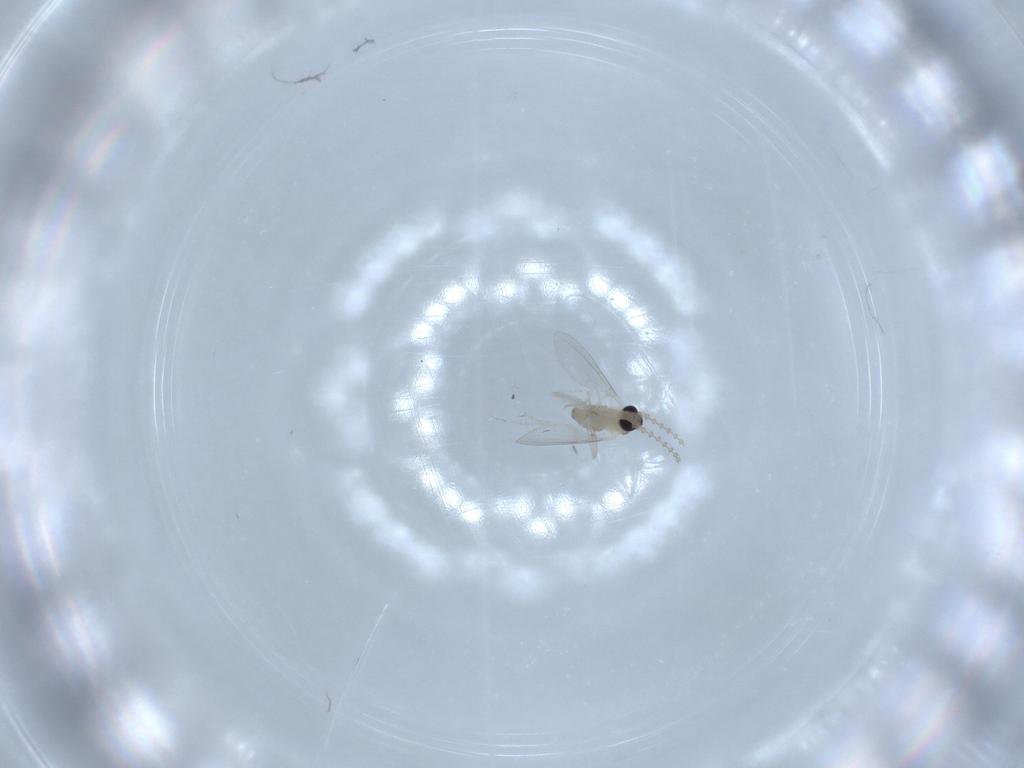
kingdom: Animalia
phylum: Arthropoda
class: Insecta
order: Diptera
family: Cecidomyiidae
